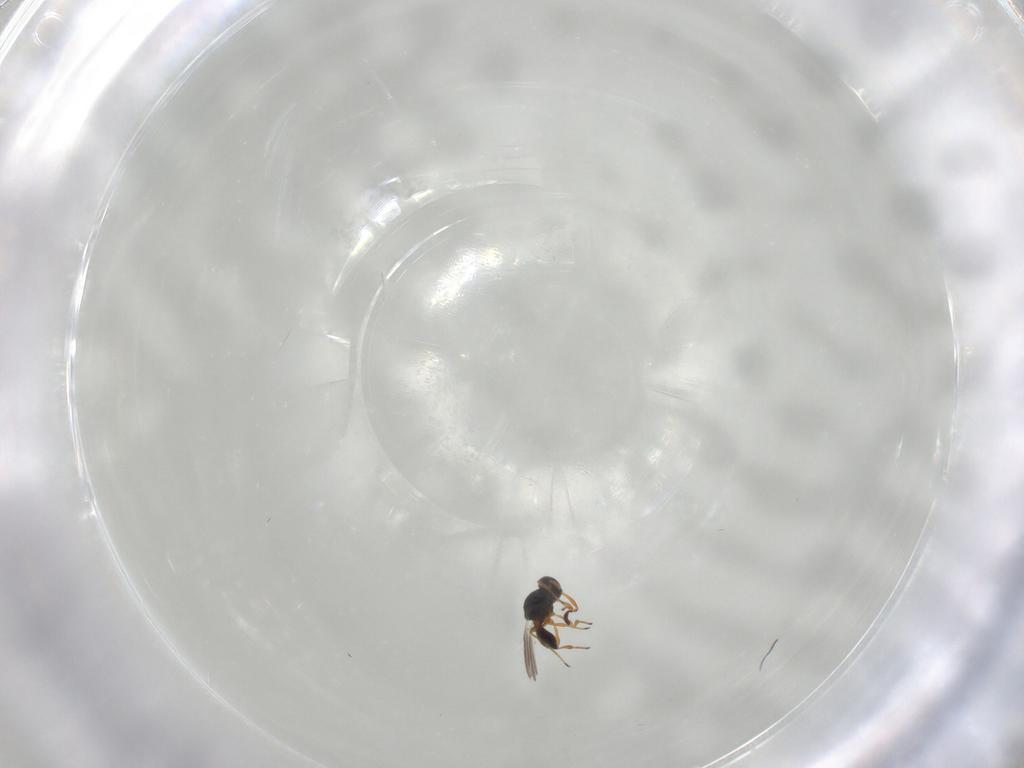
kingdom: Animalia
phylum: Arthropoda
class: Insecta
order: Hymenoptera
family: Platygastridae
